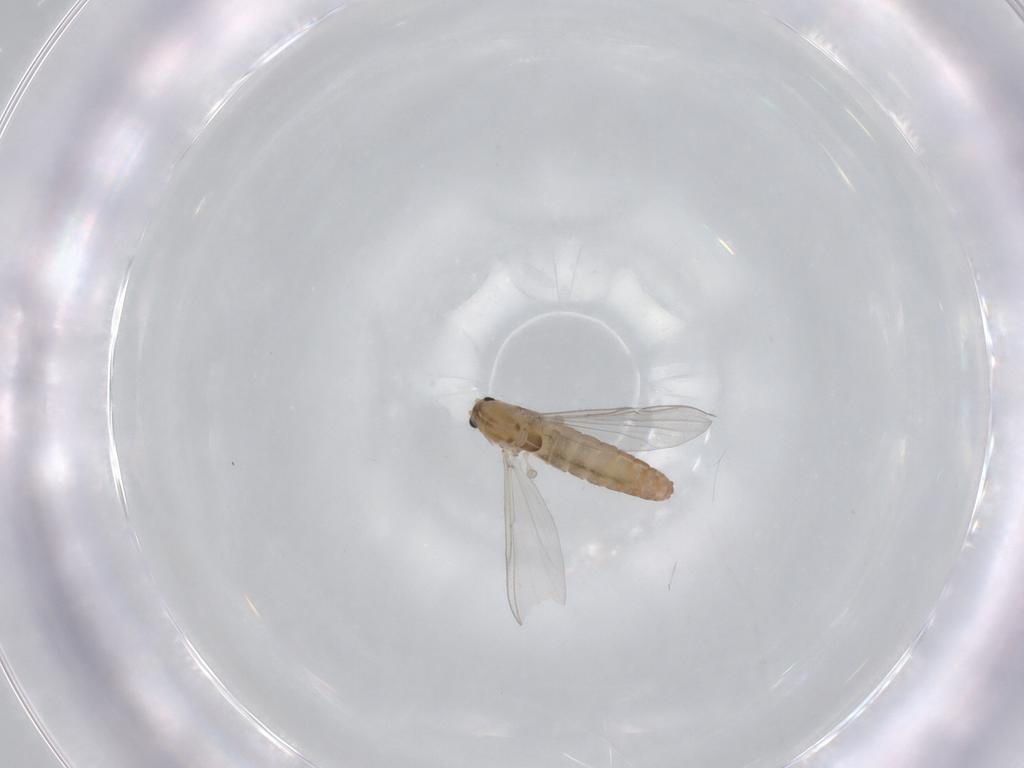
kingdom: Animalia
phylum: Arthropoda
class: Insecta
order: Diptera
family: Chironomidae
